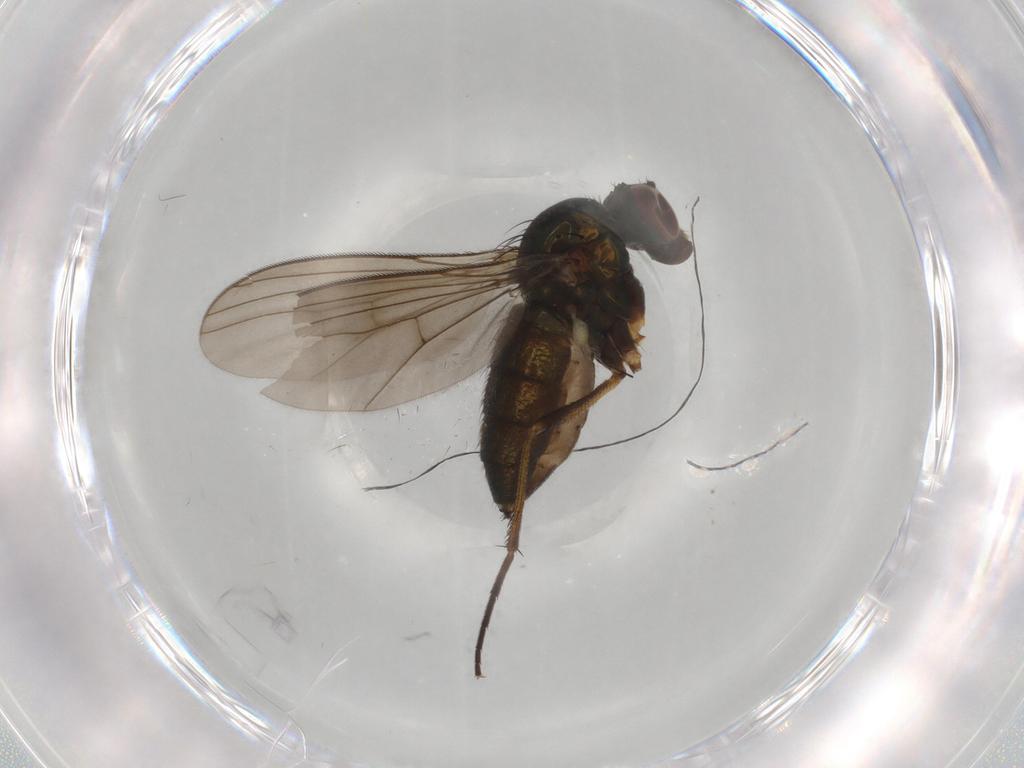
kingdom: Animalia
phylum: Arthropoda
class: Insecta
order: Diptera
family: Dolichopodidae
